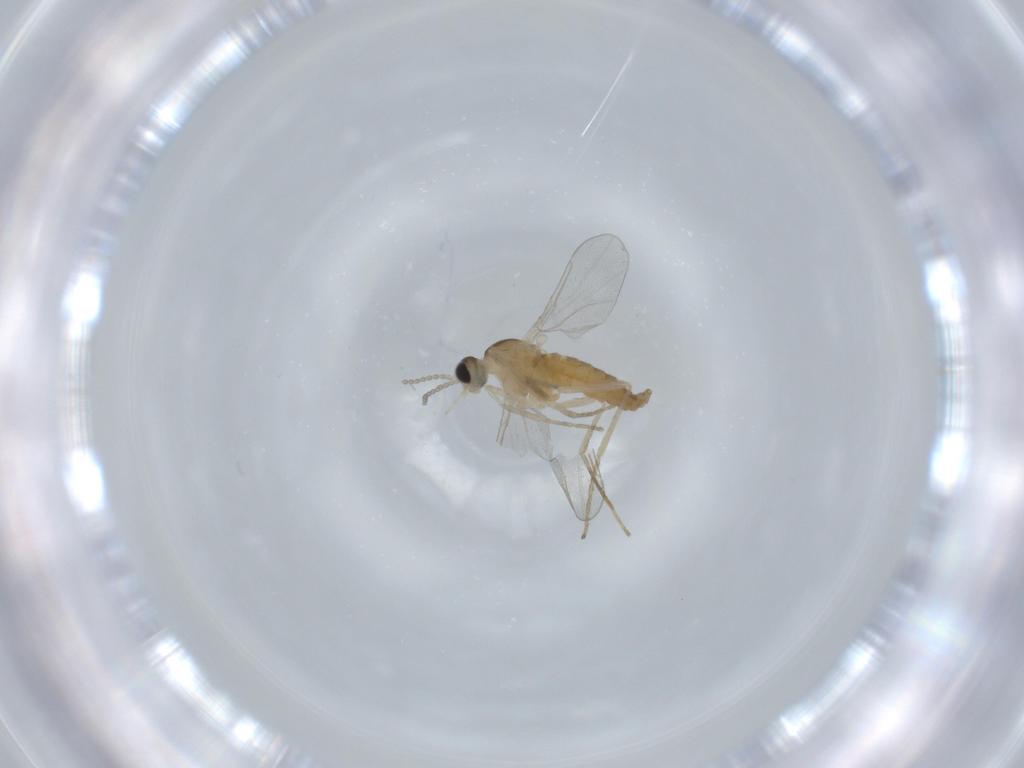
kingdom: Animalia
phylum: Arthropoda
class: Insecta
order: Diptera
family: Cecidomyiidae
